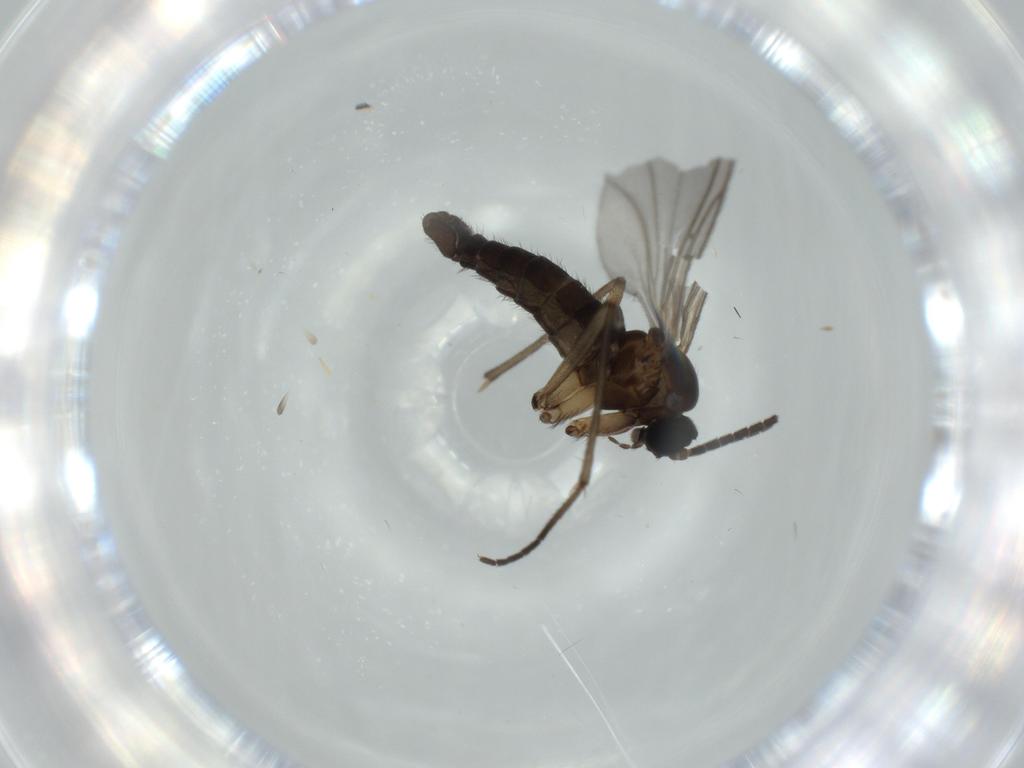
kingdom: Animalia
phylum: Arthropoda
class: Insecta
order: Diptera
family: Sciaridae
